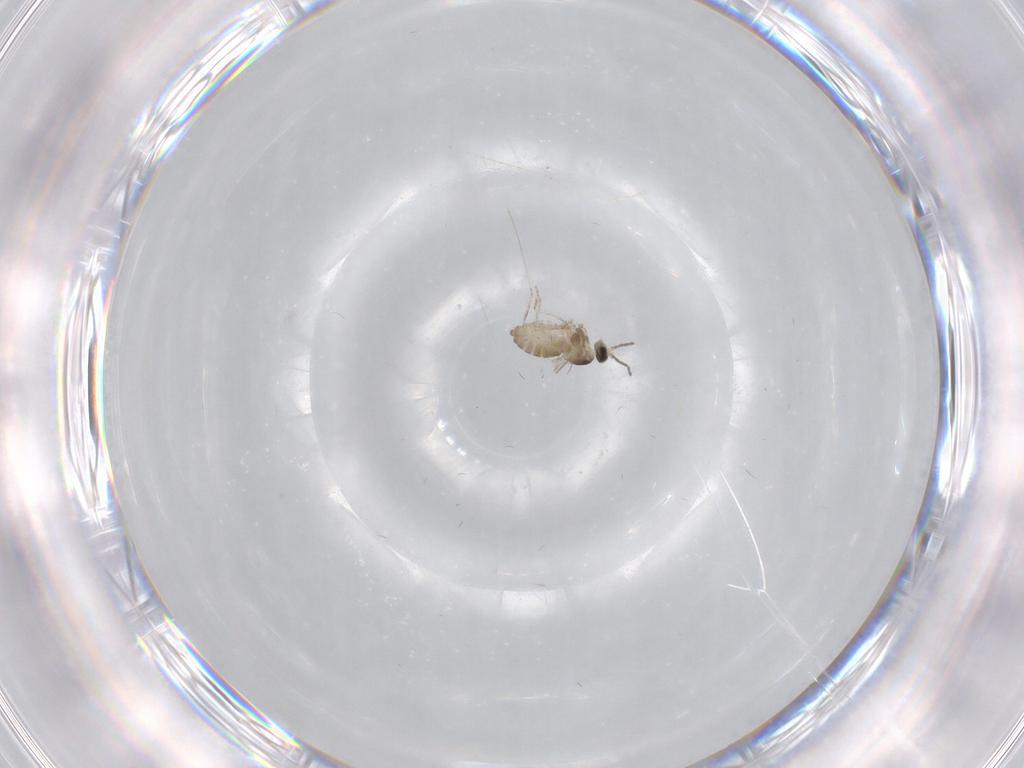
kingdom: Animalia
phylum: Arthropoda
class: Insecta
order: Diptera
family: Cecidomyiidae
